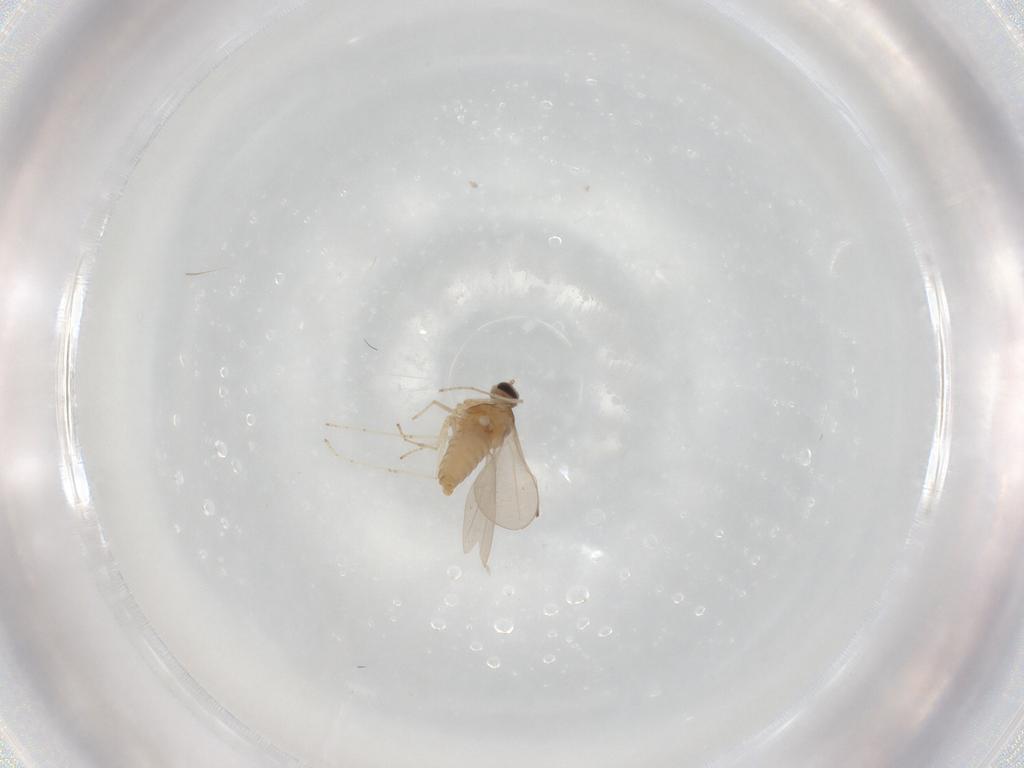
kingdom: Animalia
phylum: Arthropoda
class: Insecta
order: Diptera
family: Cecidomyiidae
